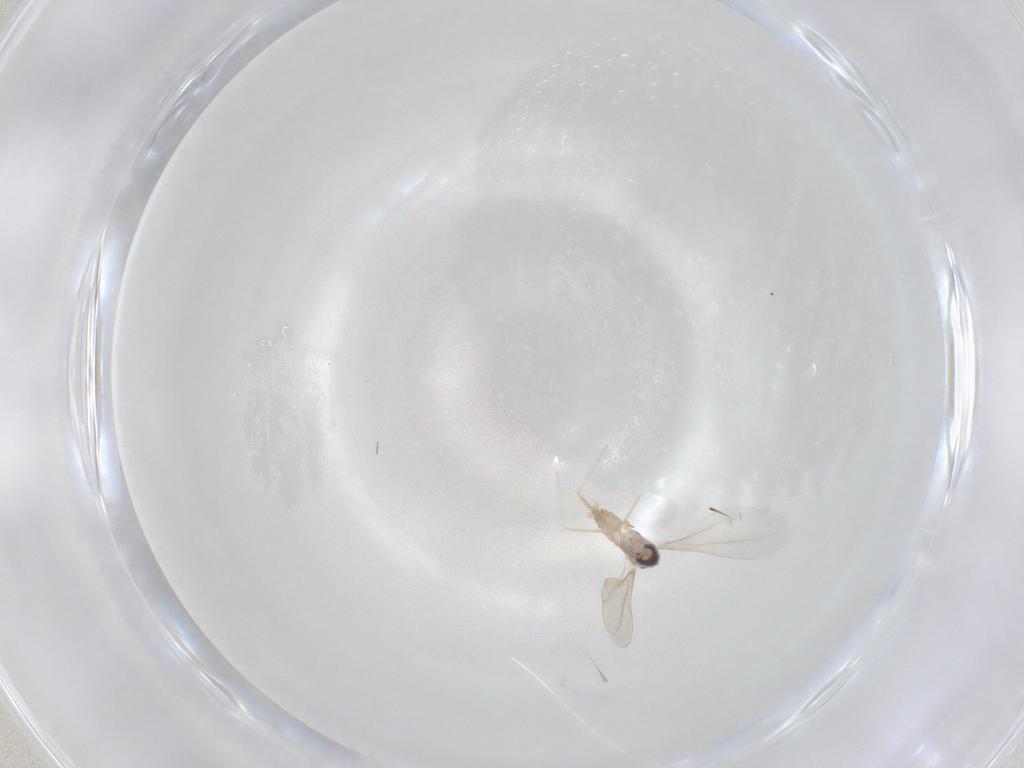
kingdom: Animalia
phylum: Arthropoda
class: Insecta
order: Diptera
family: Cecidomyiidae
